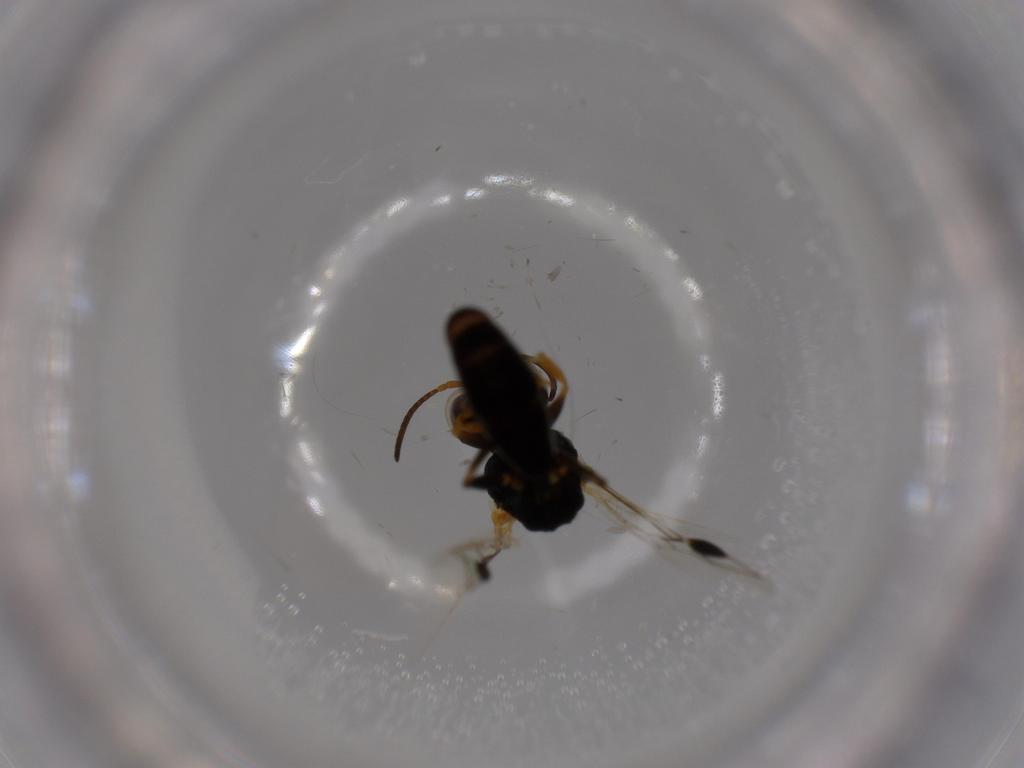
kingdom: Animalia
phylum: Arthropoda
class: Insecta
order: Hymenoptera
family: Pemphredonidae
